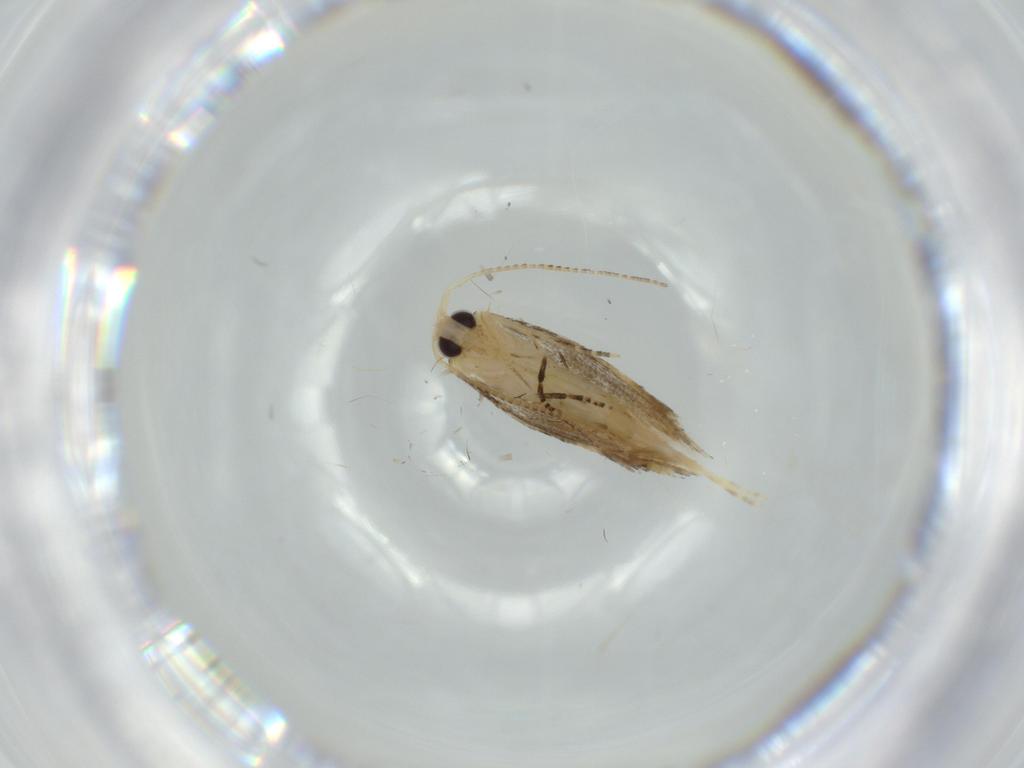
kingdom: Animalia
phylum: Arthropoda
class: Insecta
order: Lepidoptera
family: Bucculatricidae
